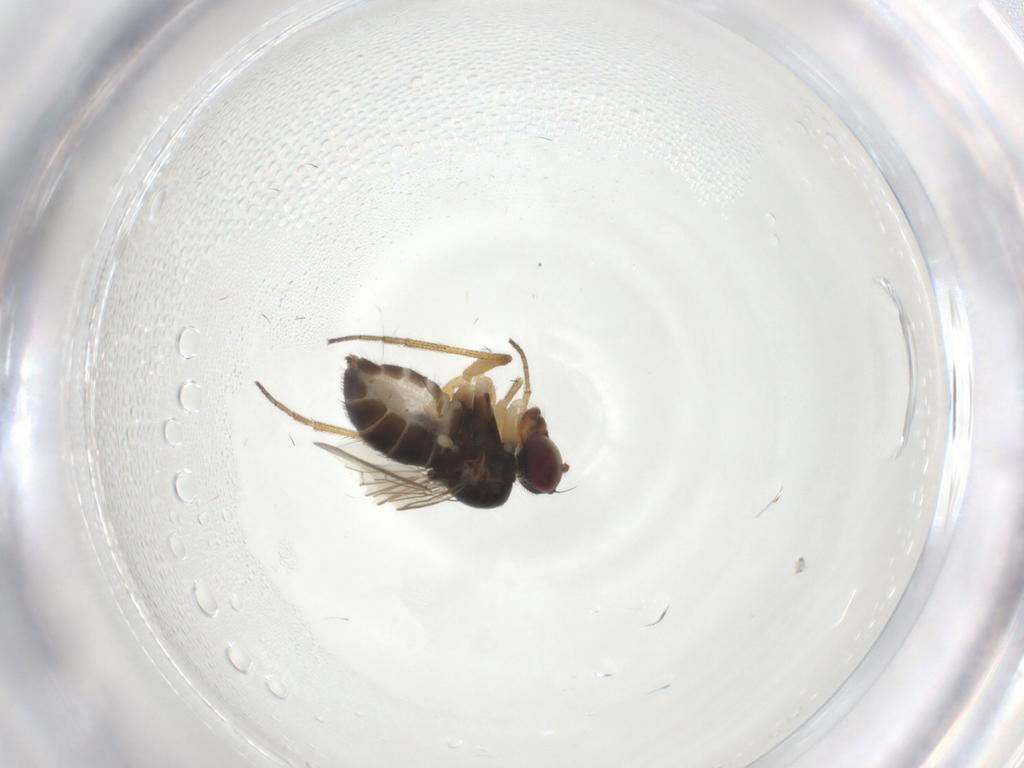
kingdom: Animalia
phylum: Arthropoda
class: Insecta
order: Diptera
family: Dolichopodidae
